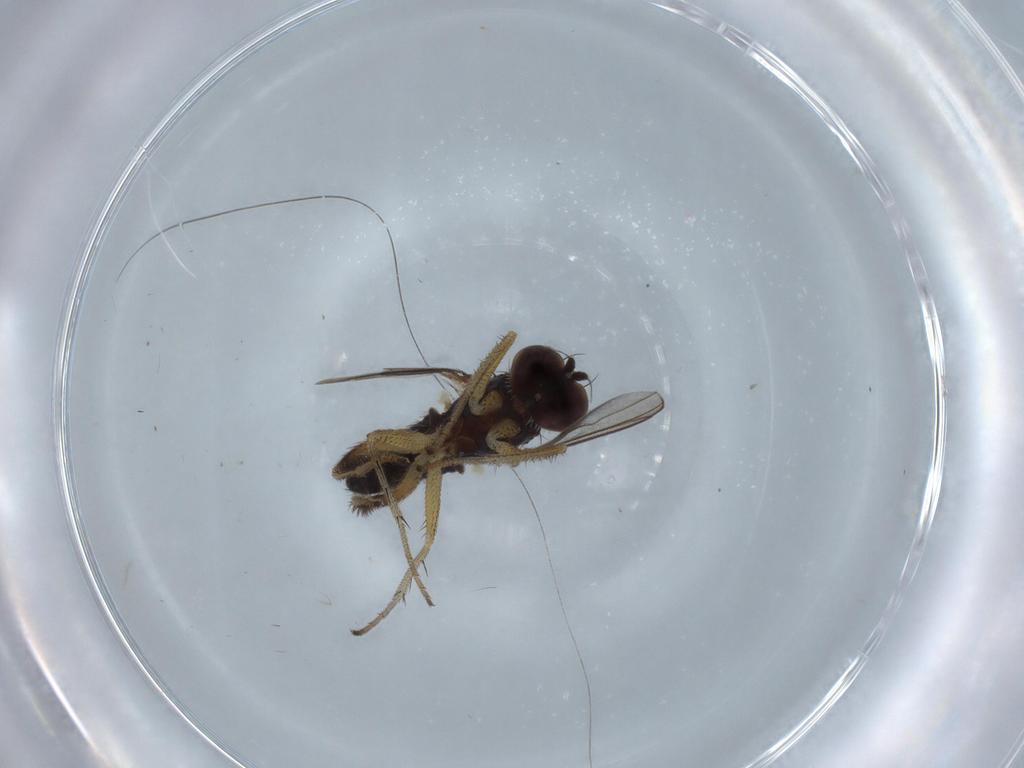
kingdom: Animalia
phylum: Arthropoda
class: Insecta
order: Diptera
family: Dolichopodidae
